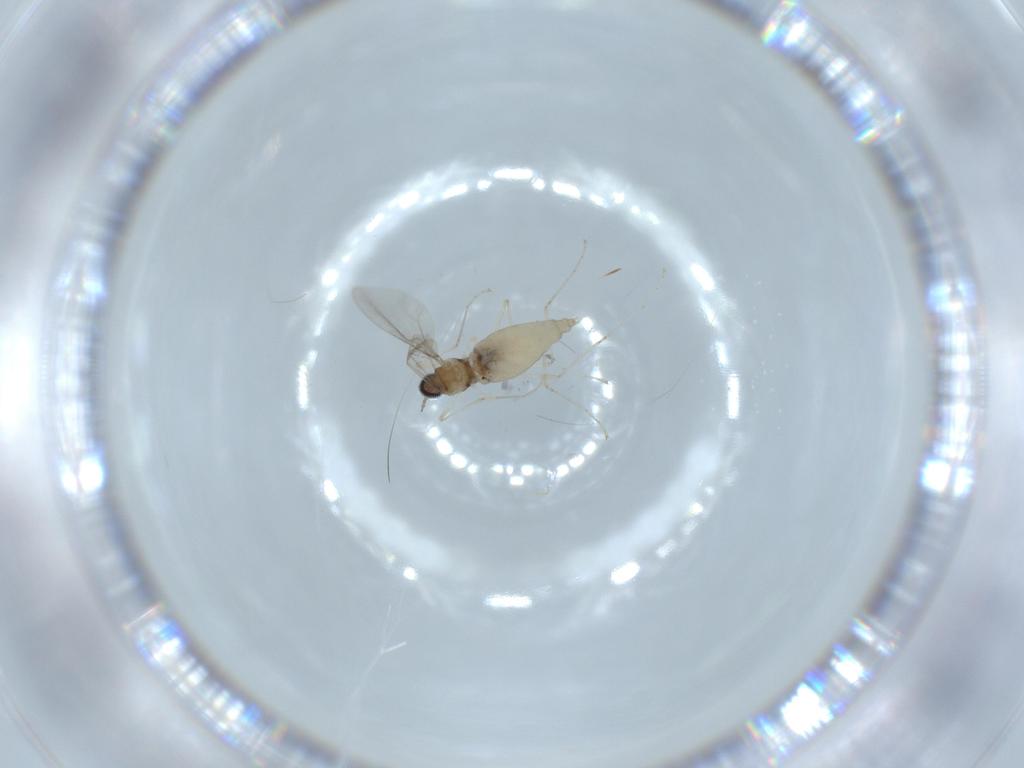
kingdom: Animalia
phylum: Arthropoda
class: Insecta
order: Diptera
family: Cecidomyiidae
